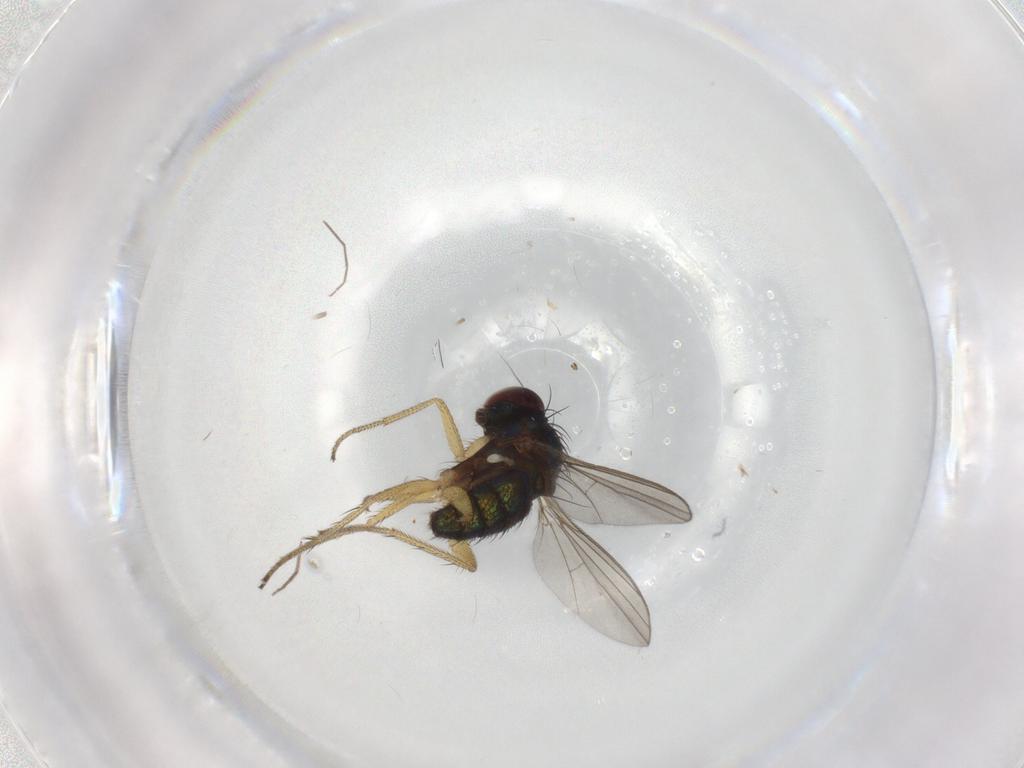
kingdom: Animalia
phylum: Arthropoda
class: Insecta
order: Diptera
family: Chironomidae
